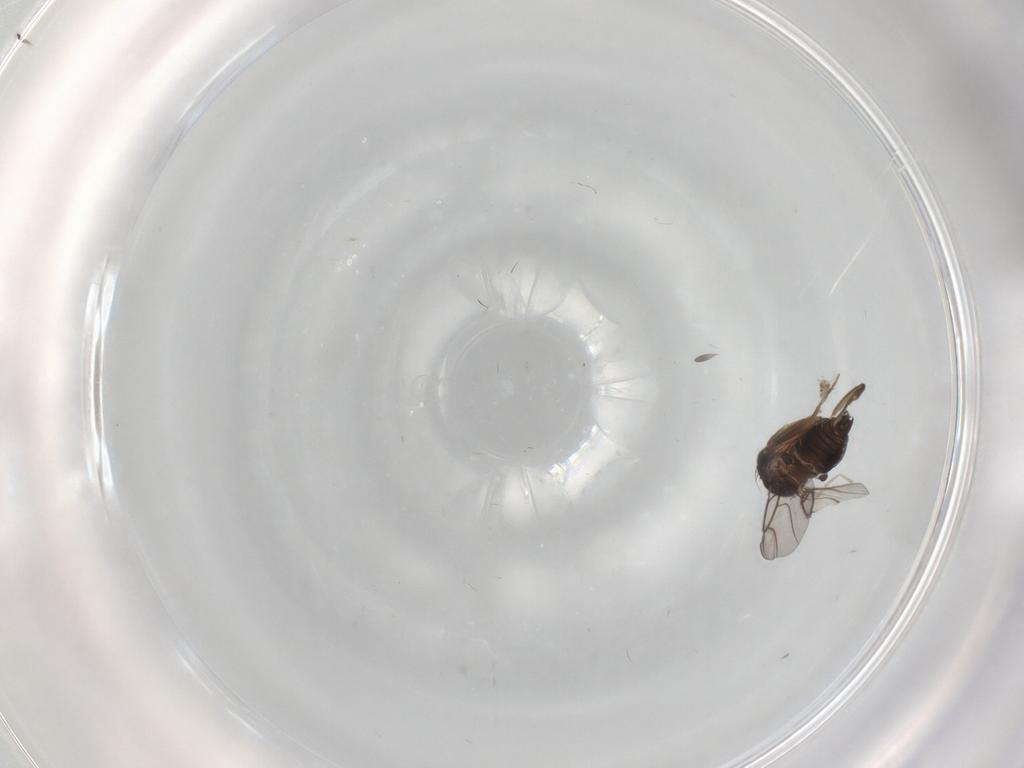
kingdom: Animalia
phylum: Arthropoda
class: Insecta
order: Diptera
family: Phoridae
